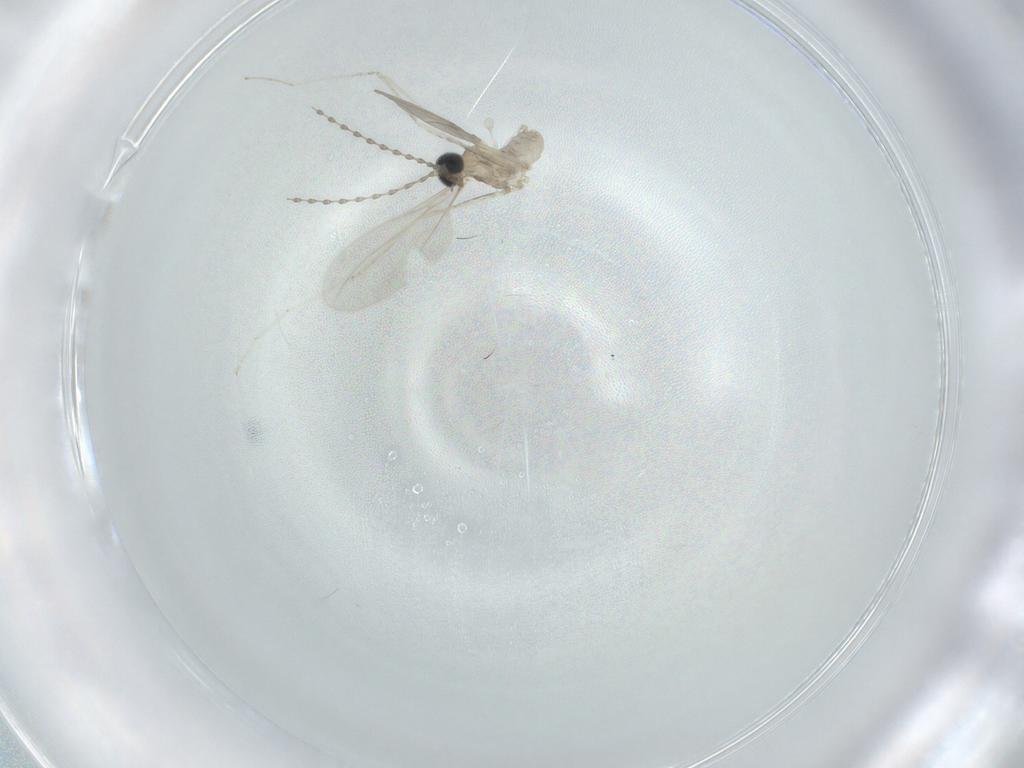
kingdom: Animalia
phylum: Arthropoda
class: Insecta
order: Diptera
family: Cecidomyiidae
